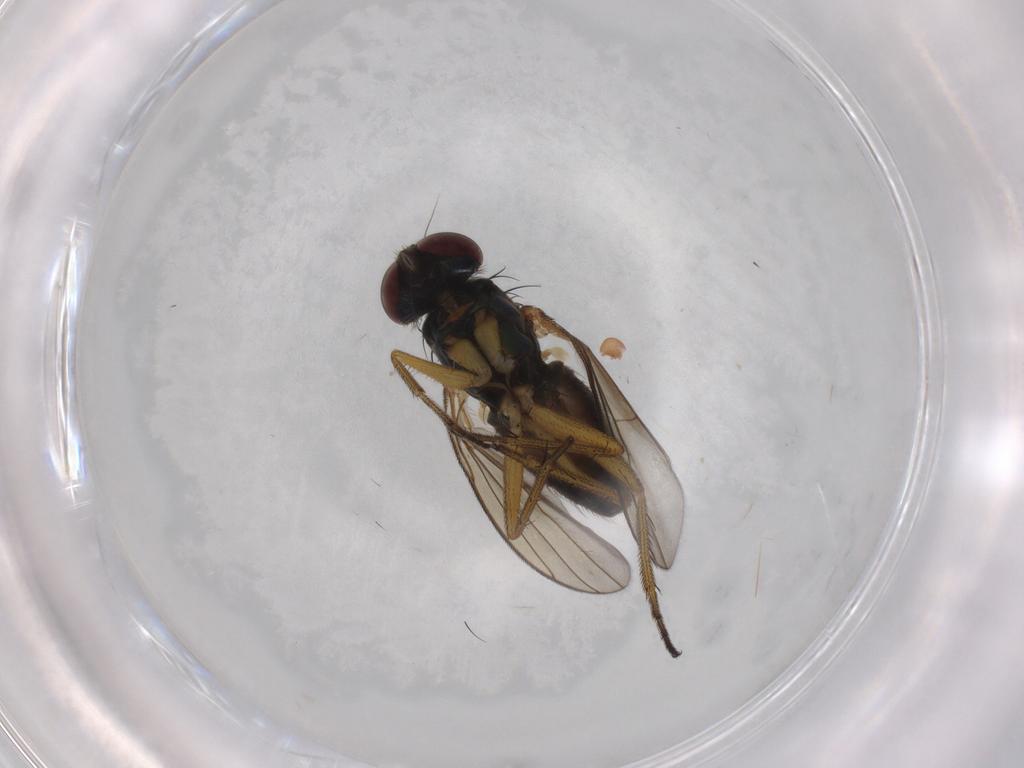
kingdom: Animalia
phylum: Arthropoda
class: Insecta
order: Diptera
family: Dolichopodidae
